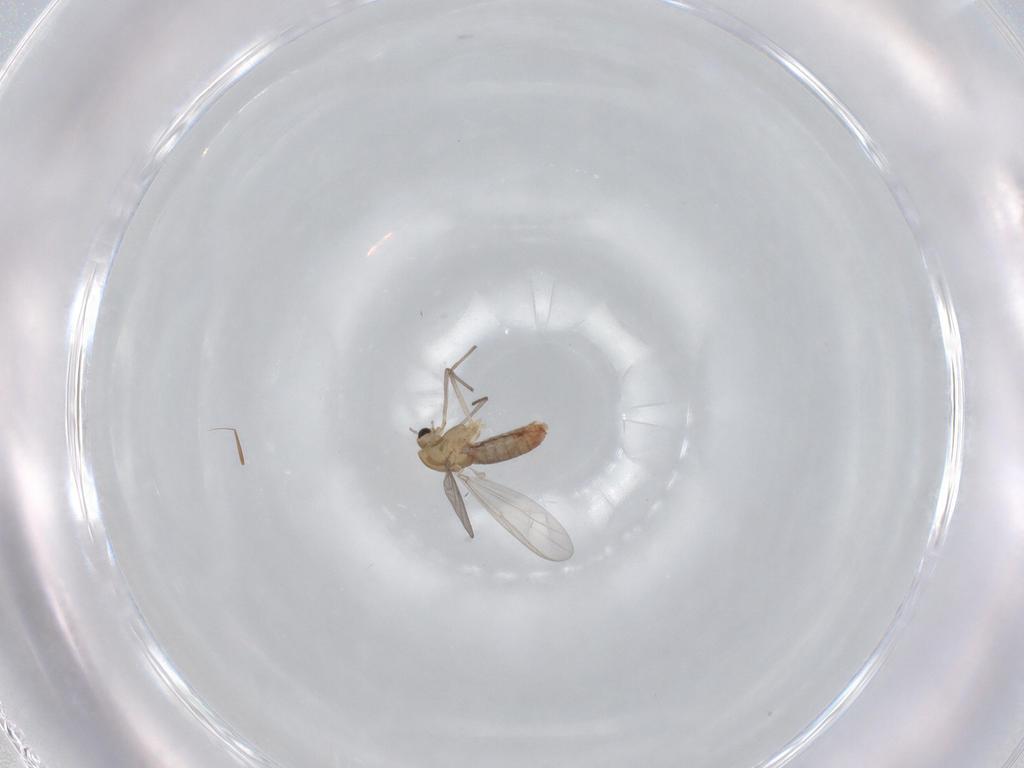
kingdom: Animalia
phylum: Arthropoda
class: Insecta
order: Diptera
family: Chironomidae
